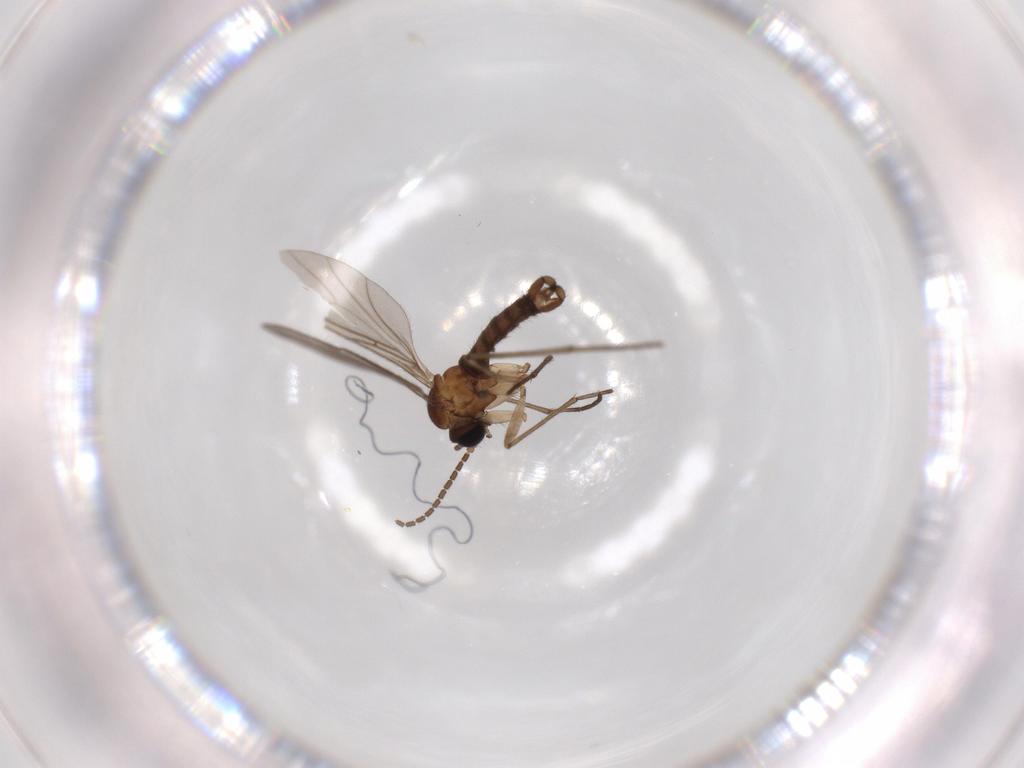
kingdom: Animalia
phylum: Arthropoda
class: Insecta
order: Diptera
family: Sciaridae
